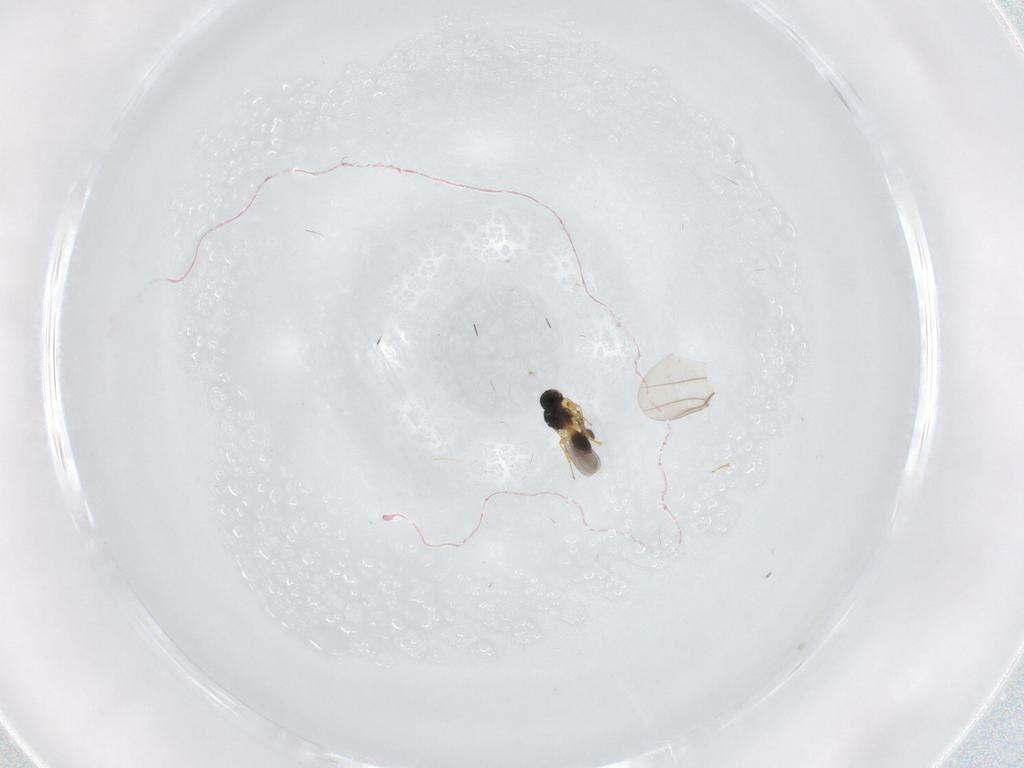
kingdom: Animalia
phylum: Arthropoda
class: Insecta
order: Hymenoptera
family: Platygastridae
